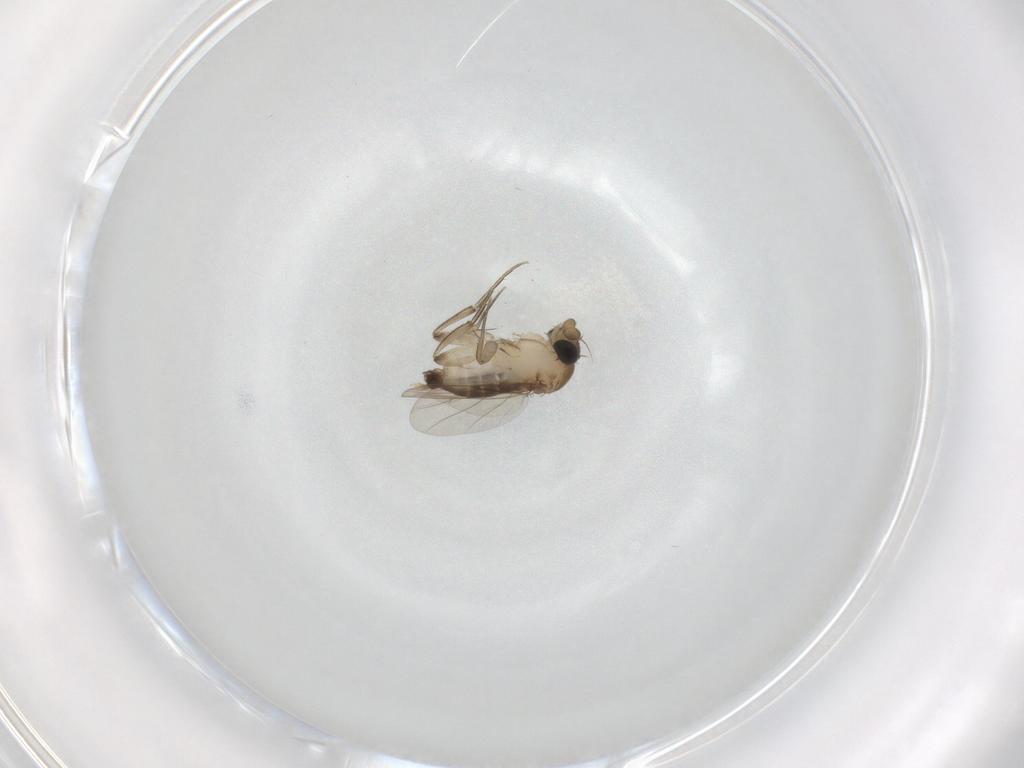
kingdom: Animalia
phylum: Arthropoda
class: Insecta
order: Diptera
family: Phoridae
